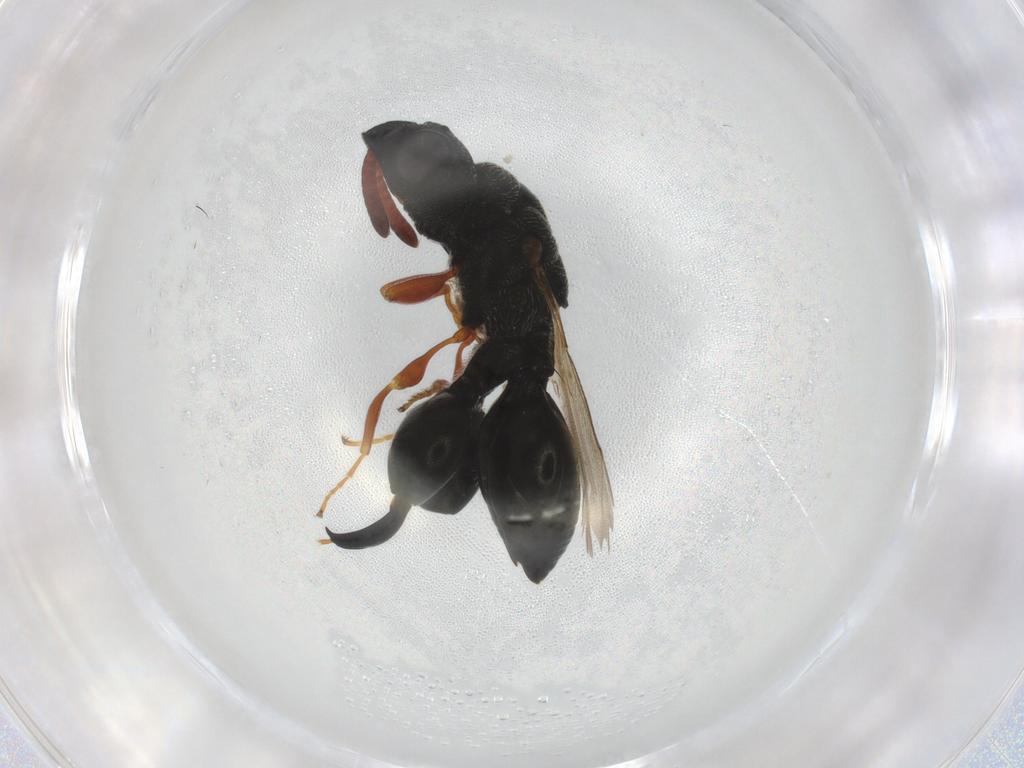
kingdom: Animalia
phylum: Arthropoda
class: Insecta
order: Hymenoptera
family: Chalcididae
